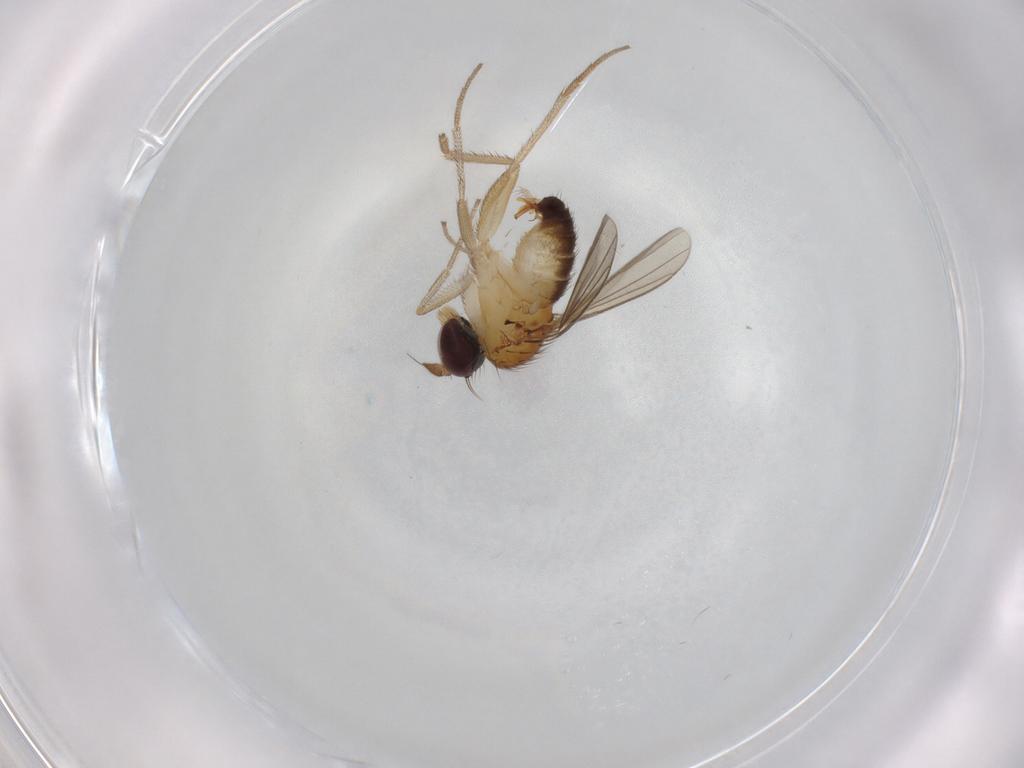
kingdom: Animalia
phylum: Arthropoda
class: Insecta
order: Diptera
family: Dolichopodidae
